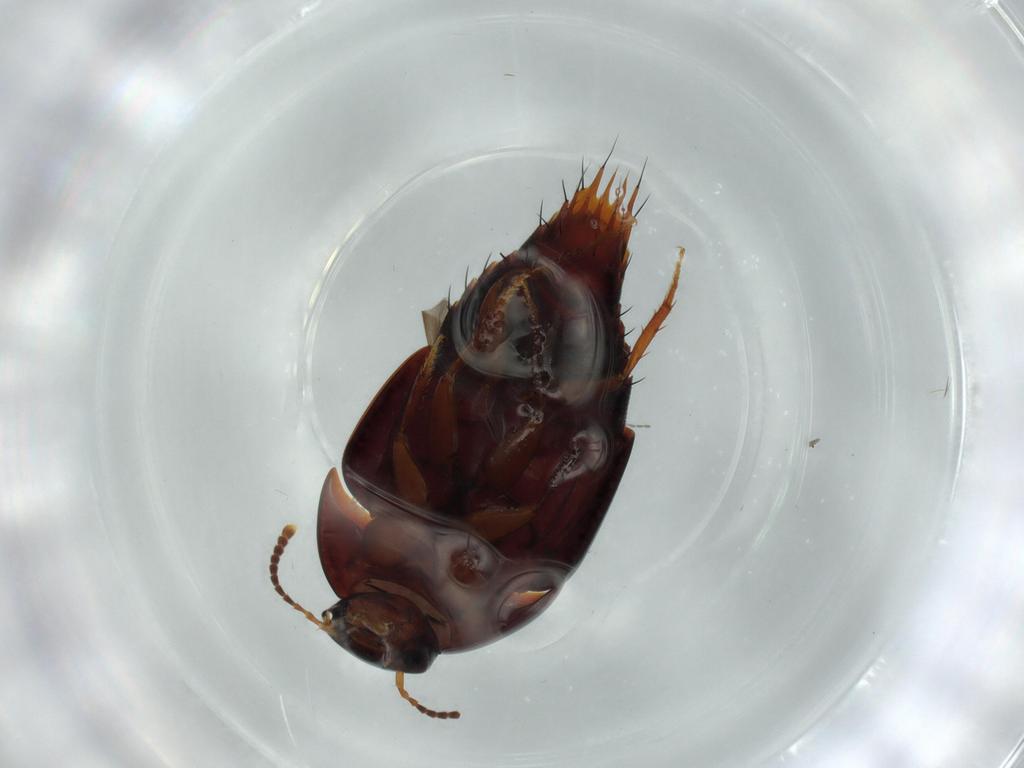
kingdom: Animalia
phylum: Arthropoda
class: Insecta
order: Coleoptera
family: Staphylinidae
